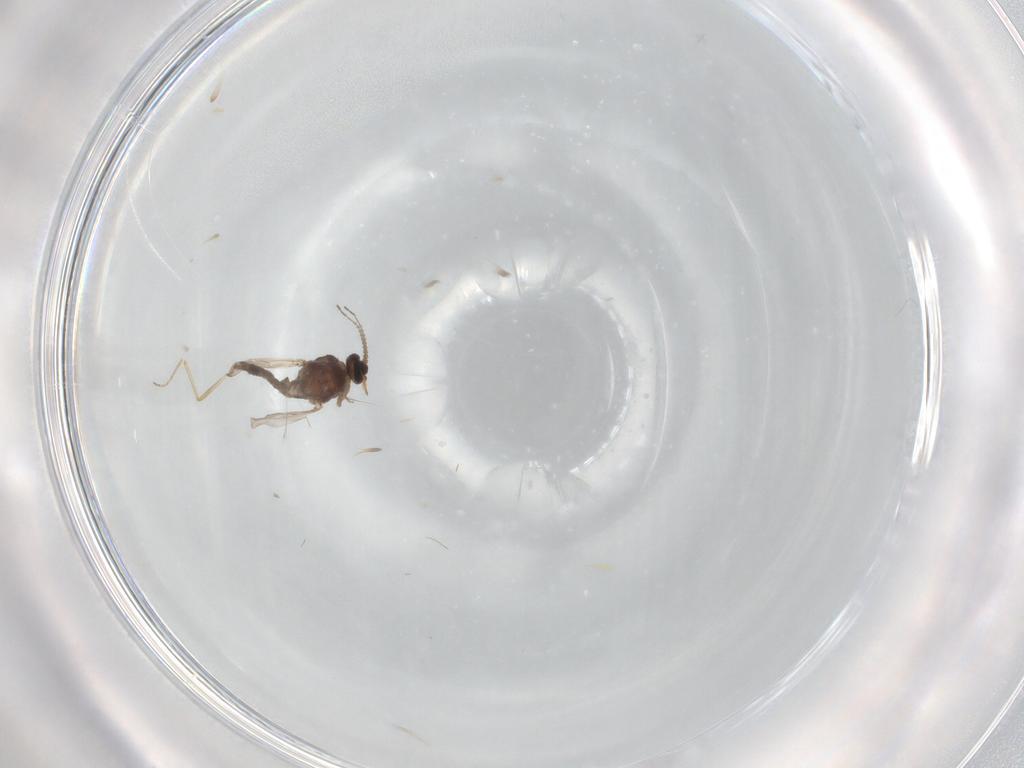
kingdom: Animalia
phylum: Arthropoda
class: Insecta
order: Diptera
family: Ceratopogonidae
